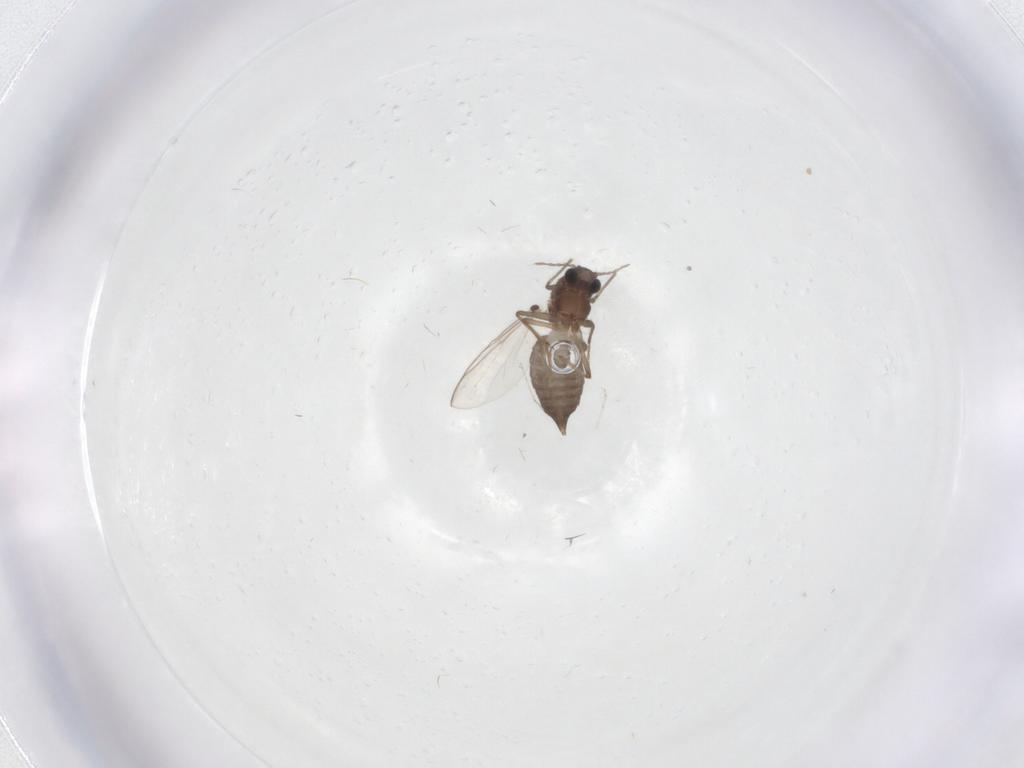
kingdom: Animalia
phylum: Arthropoda
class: Insecta
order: Diptera
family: Chironomidae
